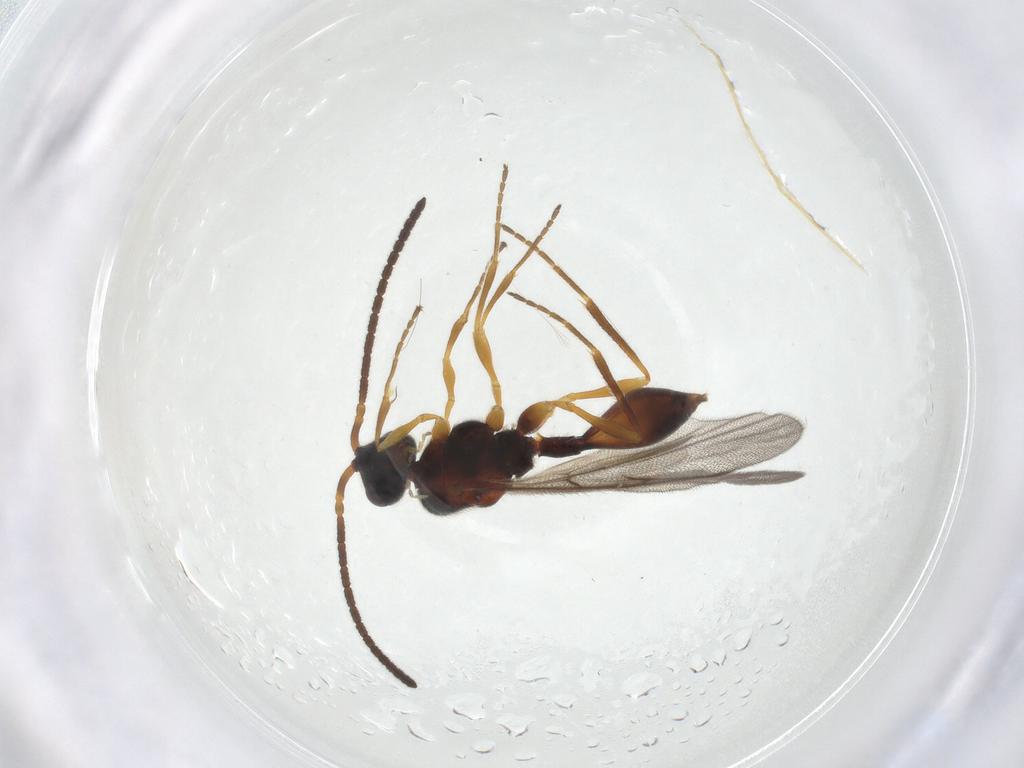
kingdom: Animalia
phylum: Arthropoda
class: Insecta
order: Hymenoptera
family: Diapriidae
